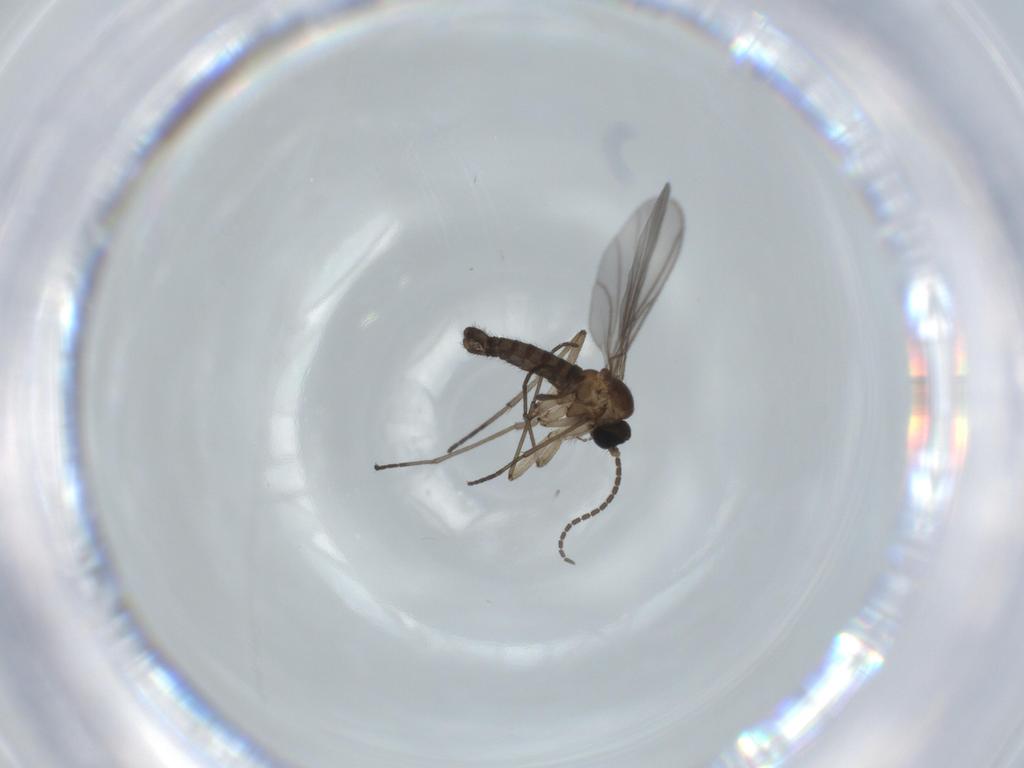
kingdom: Animalia
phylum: Arthropoda
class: Insecta
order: Diptera
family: Sciaridae
